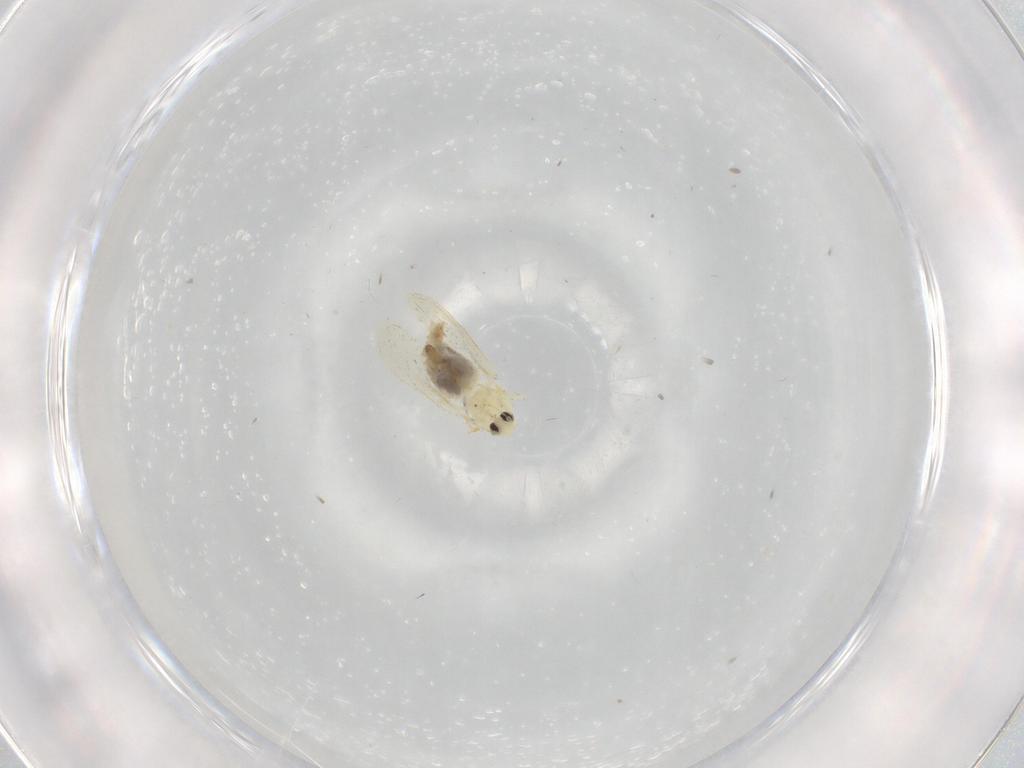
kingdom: Animalia
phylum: Arthropoda
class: Insecta
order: Hemiptera
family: Aleyrodidae
